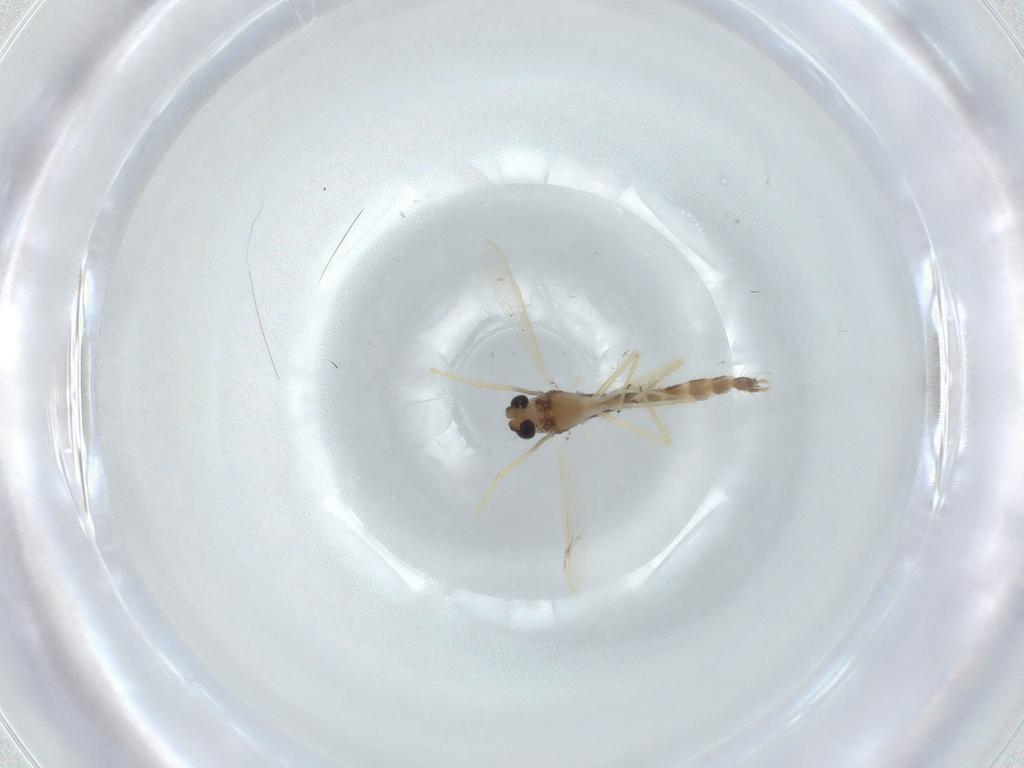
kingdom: Animalia
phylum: Arthropoda
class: Insecta
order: Diptera
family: Chironomidae
